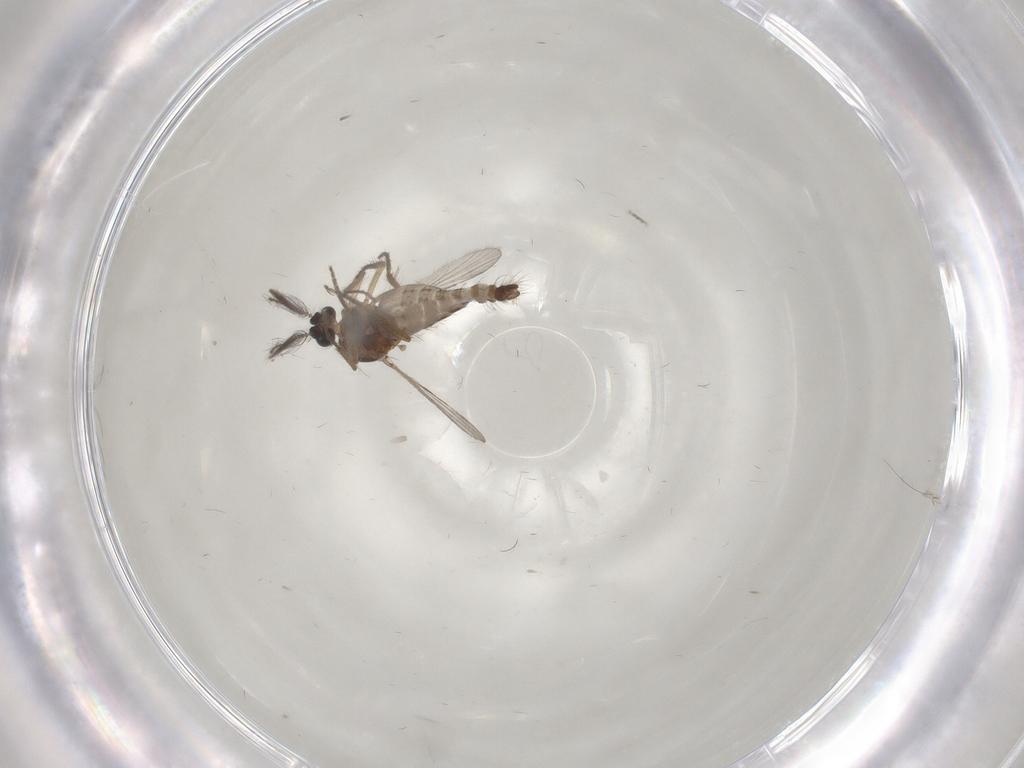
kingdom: Animalia
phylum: Arthropoda
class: Insecta
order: Diptera
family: Ceratopogonidae
